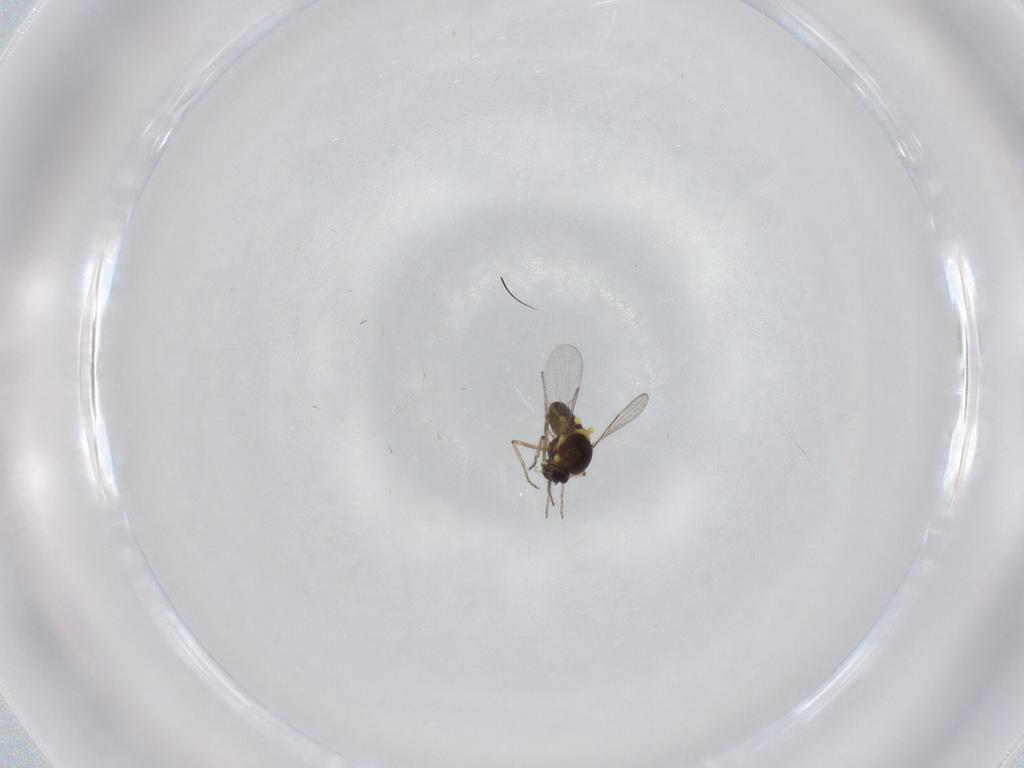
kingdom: Animalia
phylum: Arthropoda
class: Insecta
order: Diptera
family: Ceratopogonidae
